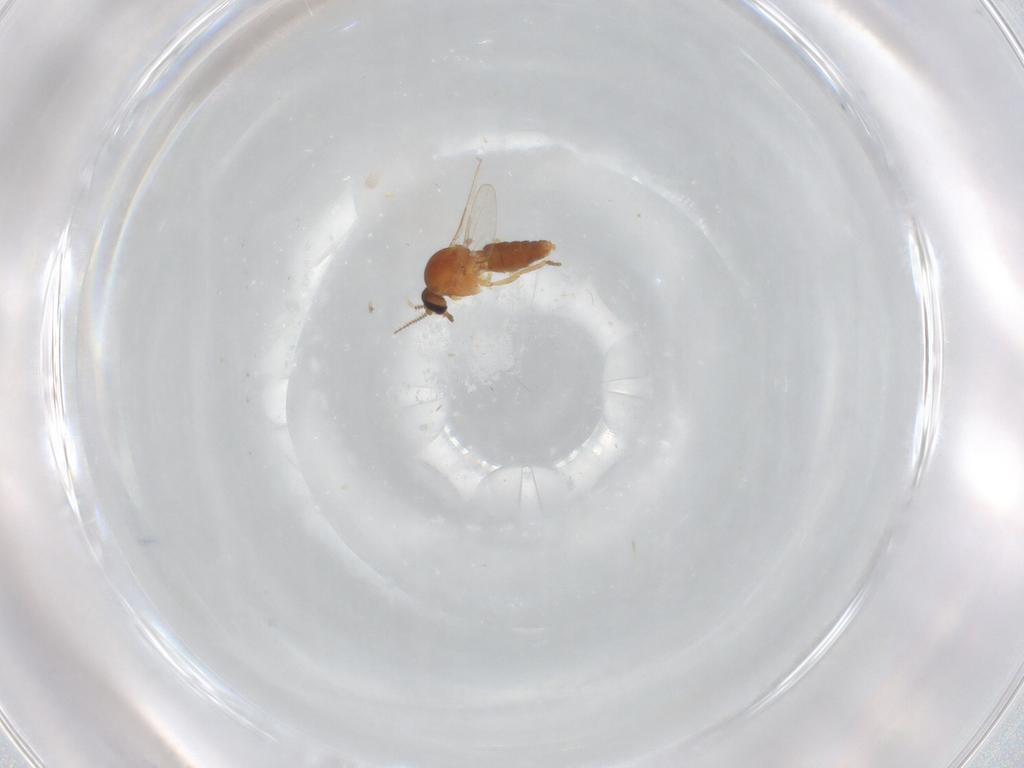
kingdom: Animalia
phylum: Arthropoda
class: Insecta
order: Diptera
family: Cecidomyiidae
